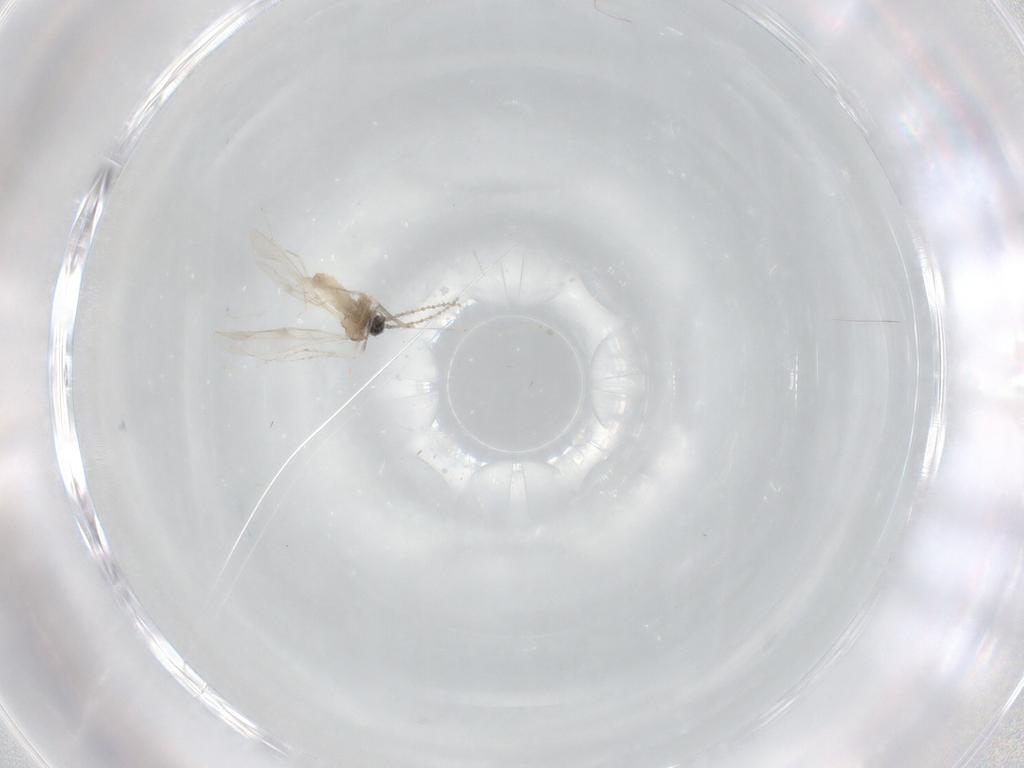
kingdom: Animalia
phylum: Arthropoda
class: Insecta
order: Diptera
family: Cecidomyiidae
